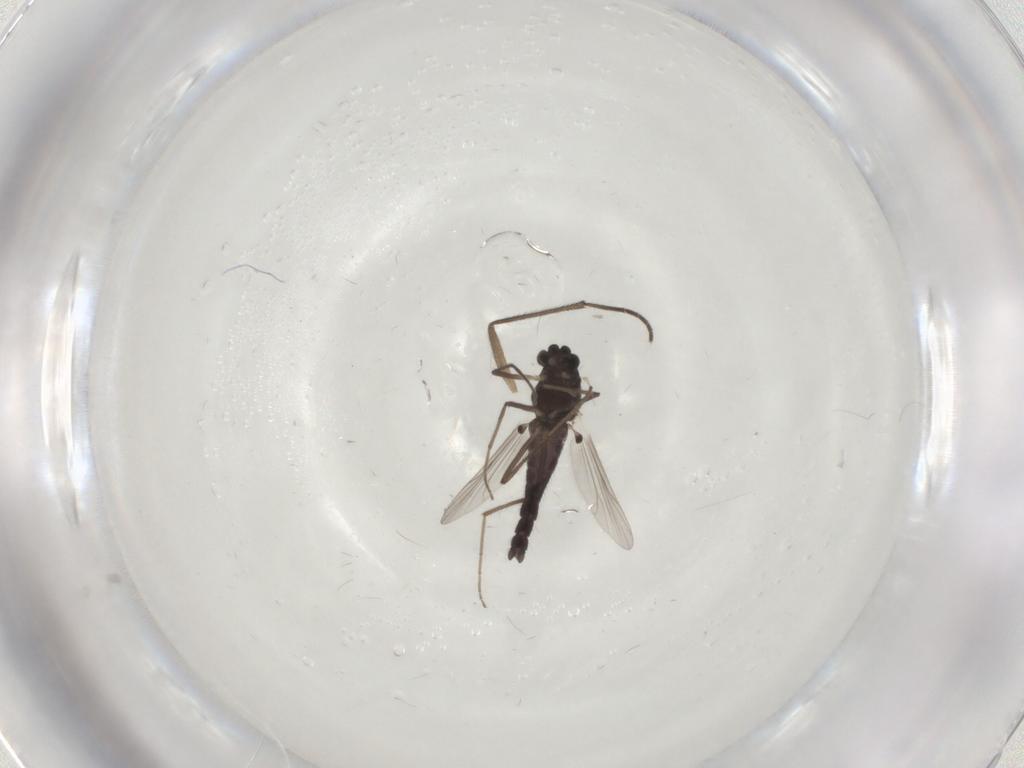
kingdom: Animalia
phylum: Arthropoda
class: Insecta
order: Diptera
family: Chironomidae
